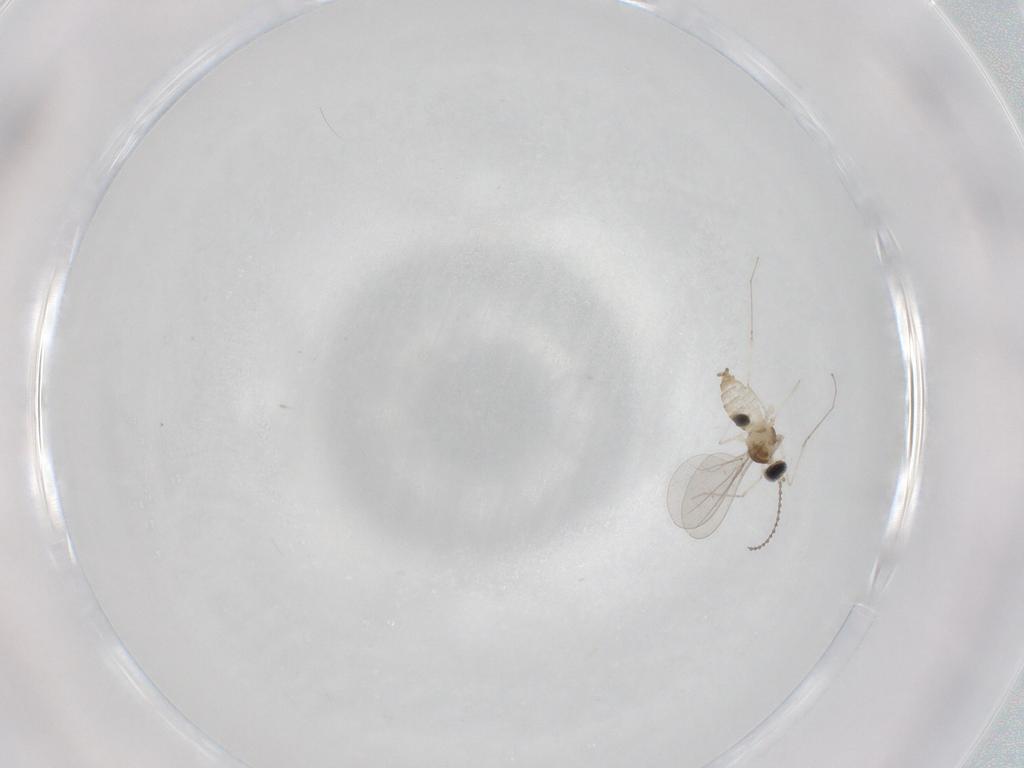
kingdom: Animalia
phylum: Arthropoda
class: Insecta
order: Diptera
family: Cecidomyiidae
